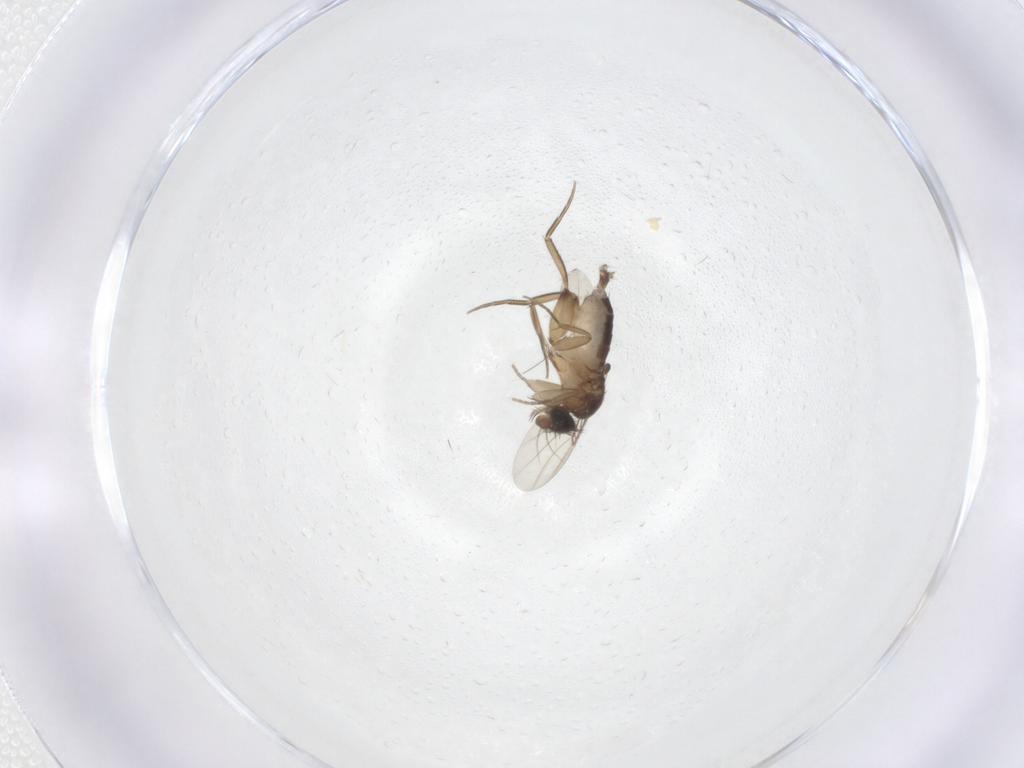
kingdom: Animalia
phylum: Arthropoda
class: Insecta
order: Diptera
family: Phoridae
